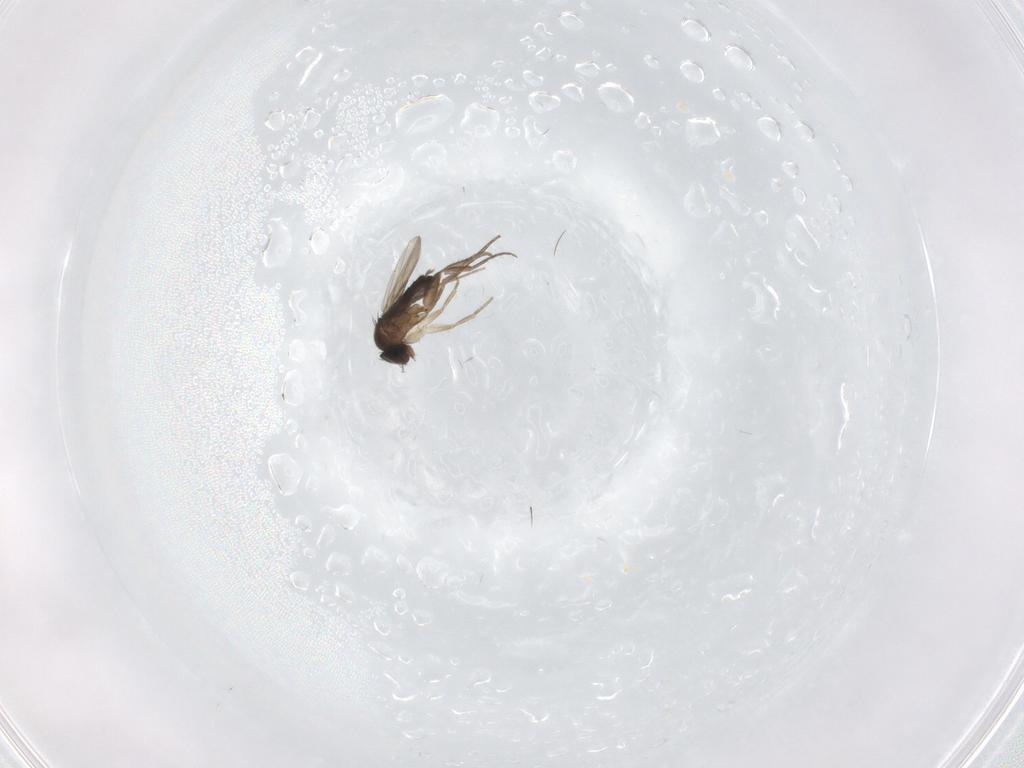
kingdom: Animalia
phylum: Arthropoda
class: Insecta
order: Diptera
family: Phoridae
